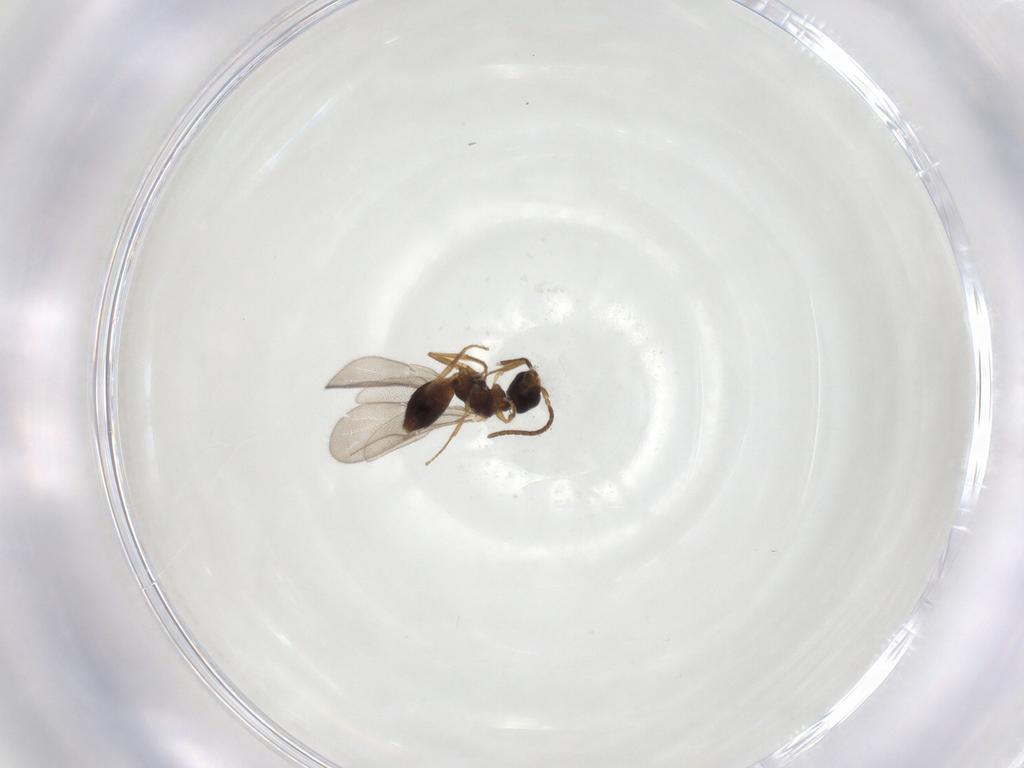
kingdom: Animalia
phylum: Arthropoda
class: Insecta
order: Hymenoptera
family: Bethylidae
